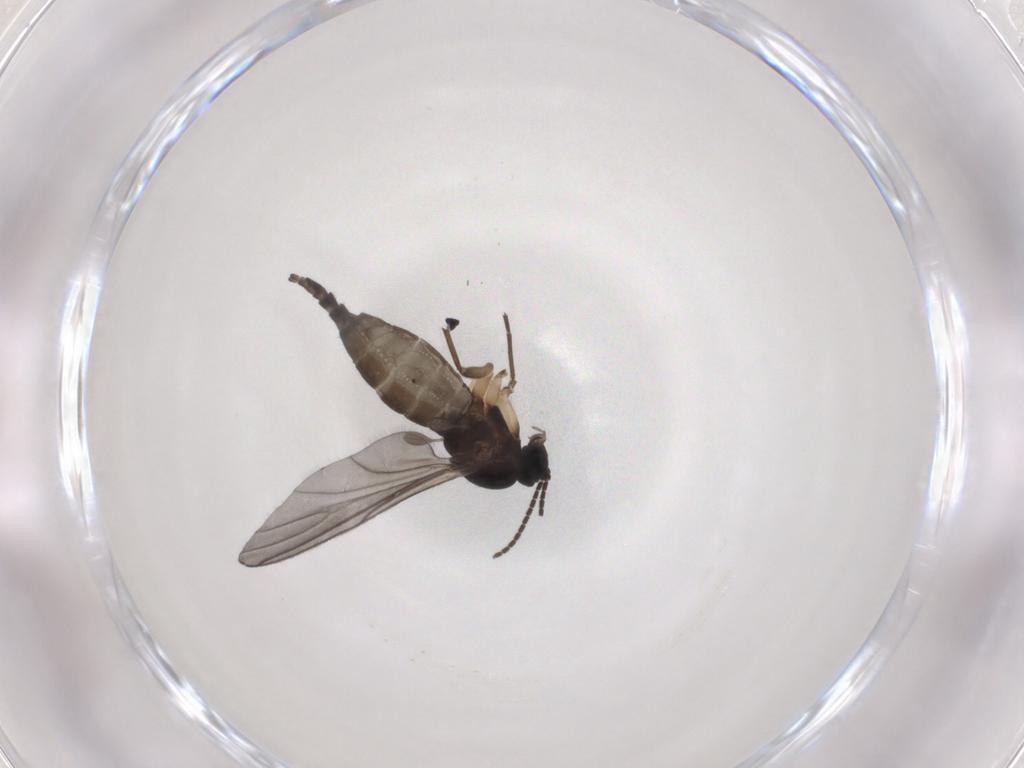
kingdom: Animalia
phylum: Arthropoda
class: Insecta
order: Diptera
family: Sciaridae
